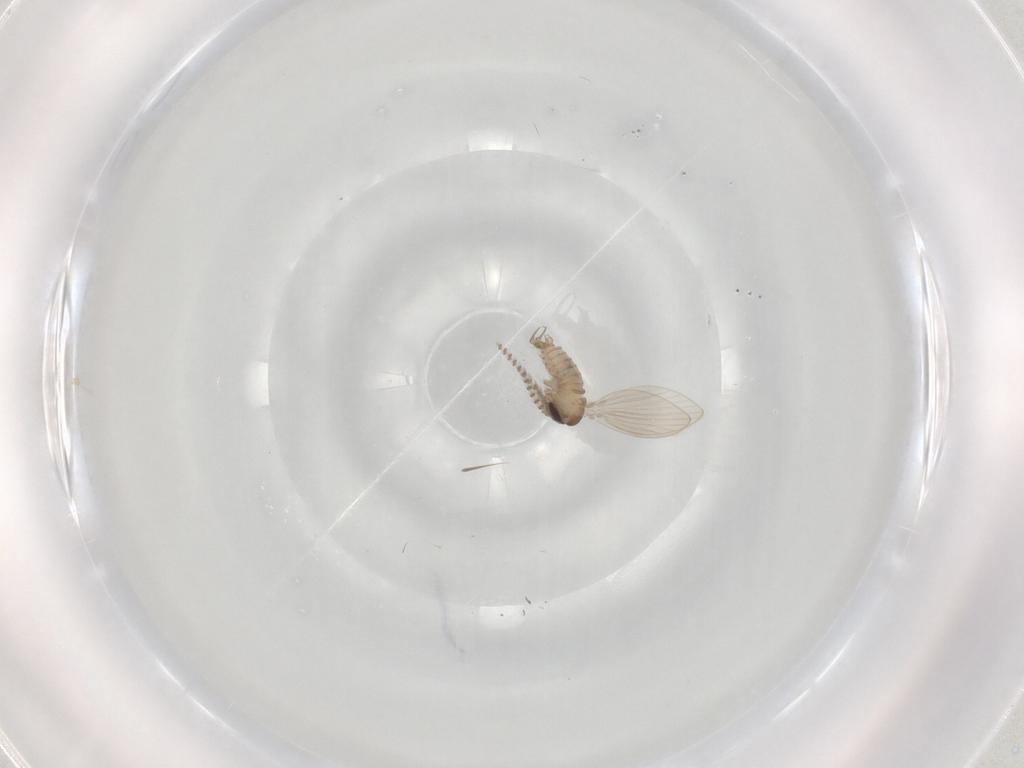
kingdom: Animalia
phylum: Arthropoda
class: Insecta
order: Diptera
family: Psychodidae
